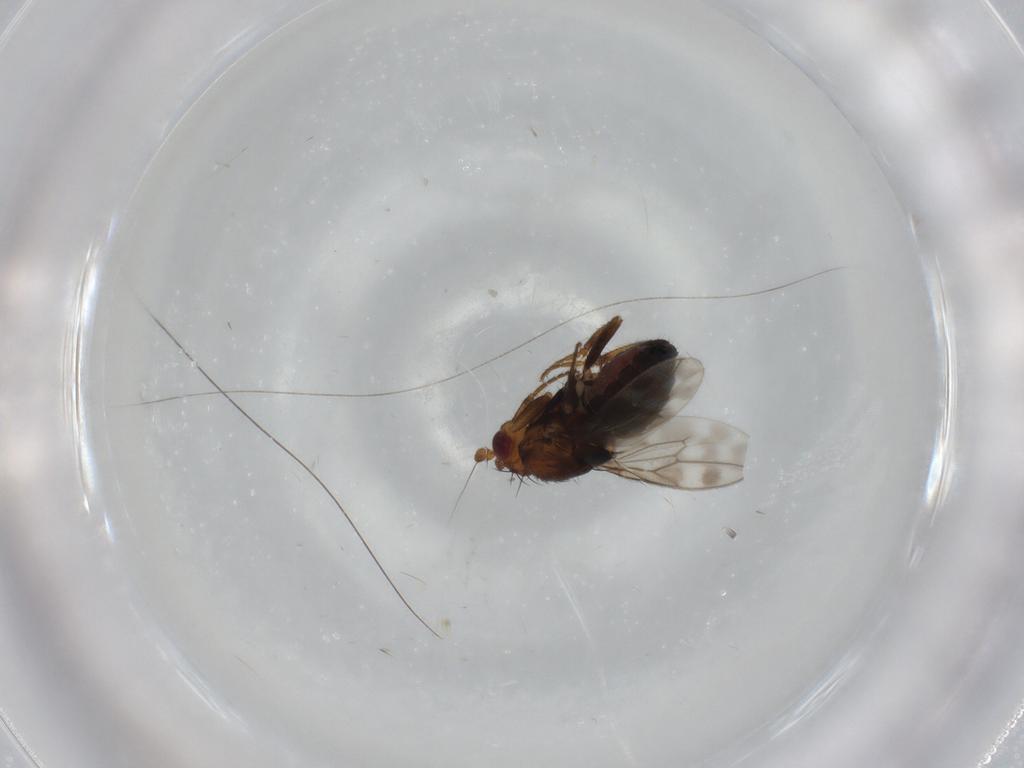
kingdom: Animalia
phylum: Arthropoda
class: Insecta
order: Diptera
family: Sphaeroceridae
